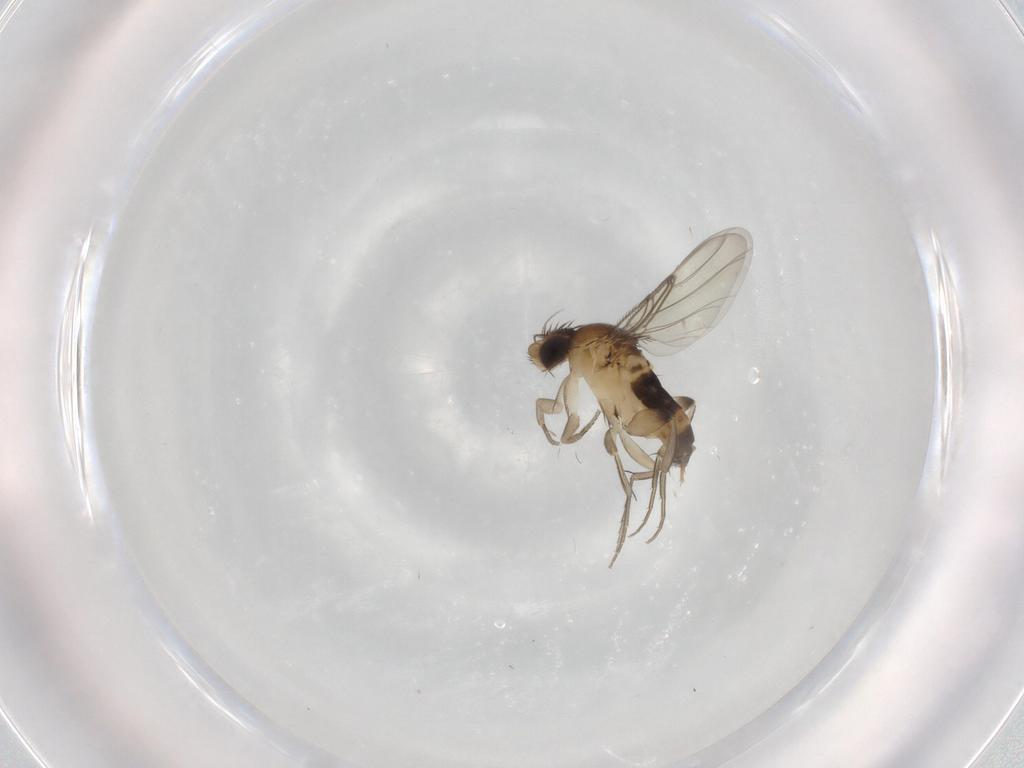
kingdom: Animalia
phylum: Arthropoda
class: Insecta
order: Diptera
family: Phoridae
